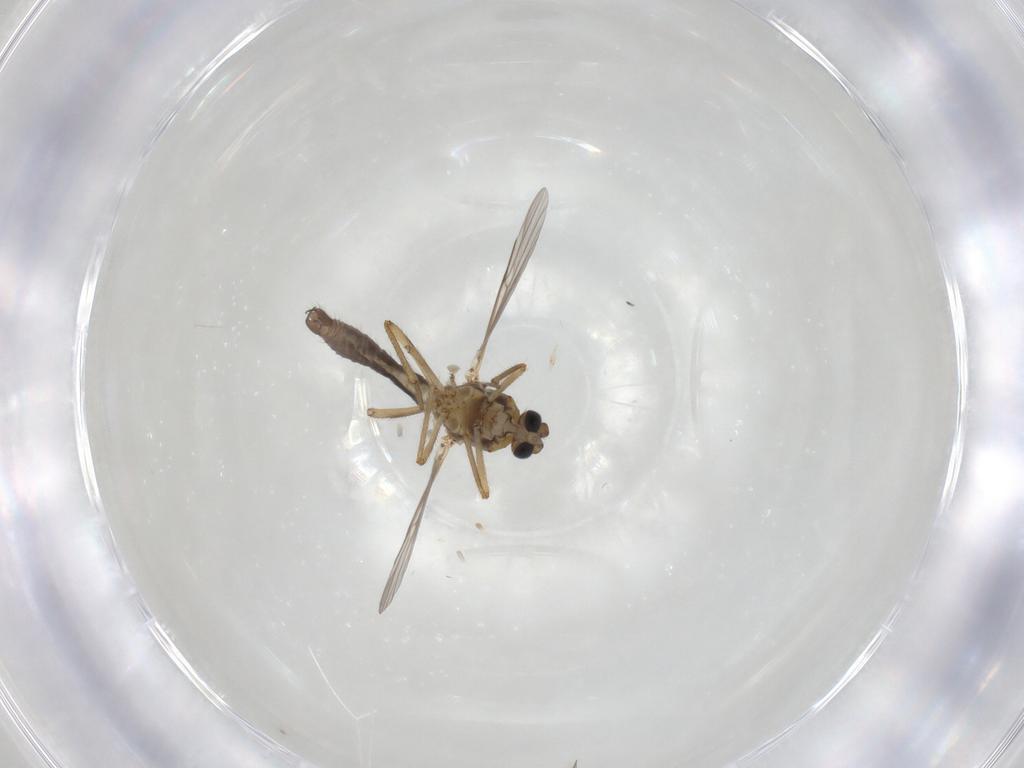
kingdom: Animalia
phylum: Arthropoda
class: Insecta
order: Diptera
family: Ceratopogonidae
